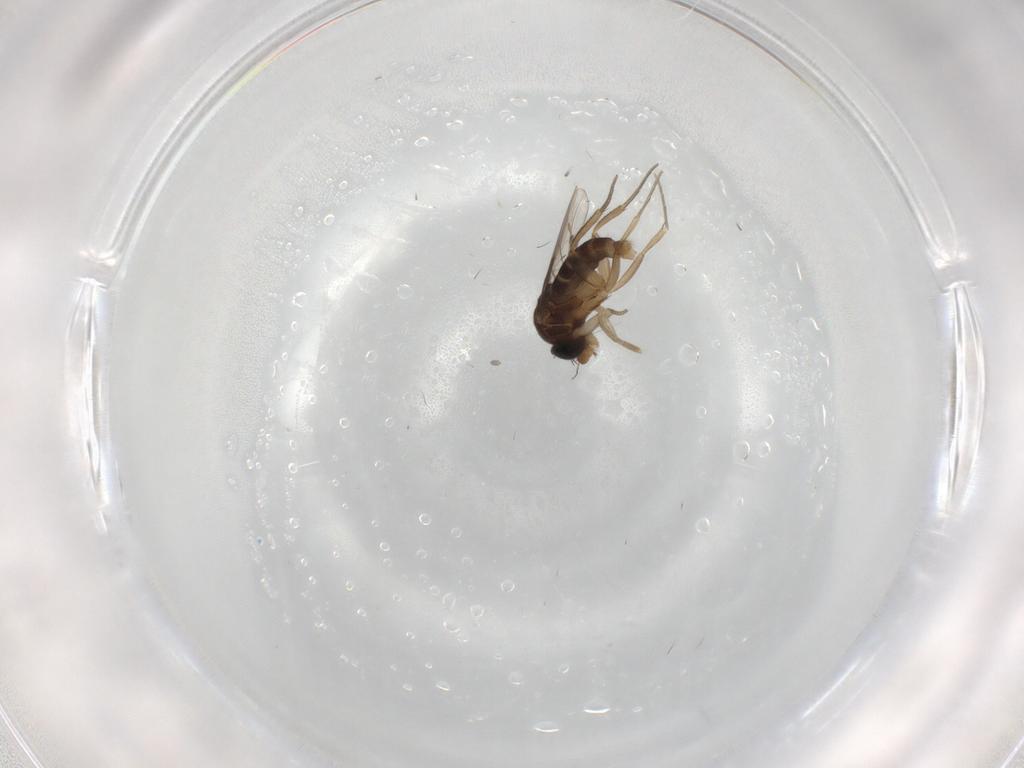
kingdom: Animalia
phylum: Arthropoda
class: Insecta
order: Diptera
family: Phoridae
